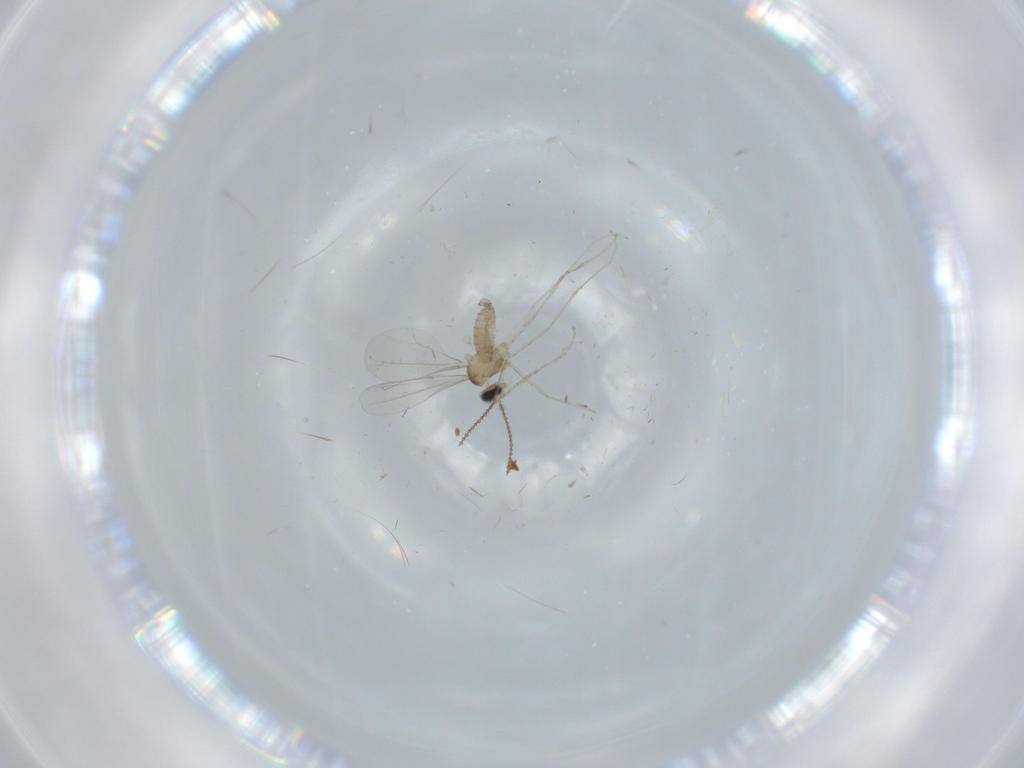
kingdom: Animalia
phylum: Arthropoda
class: Insecta
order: Diptera
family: Cecidomyiidae
